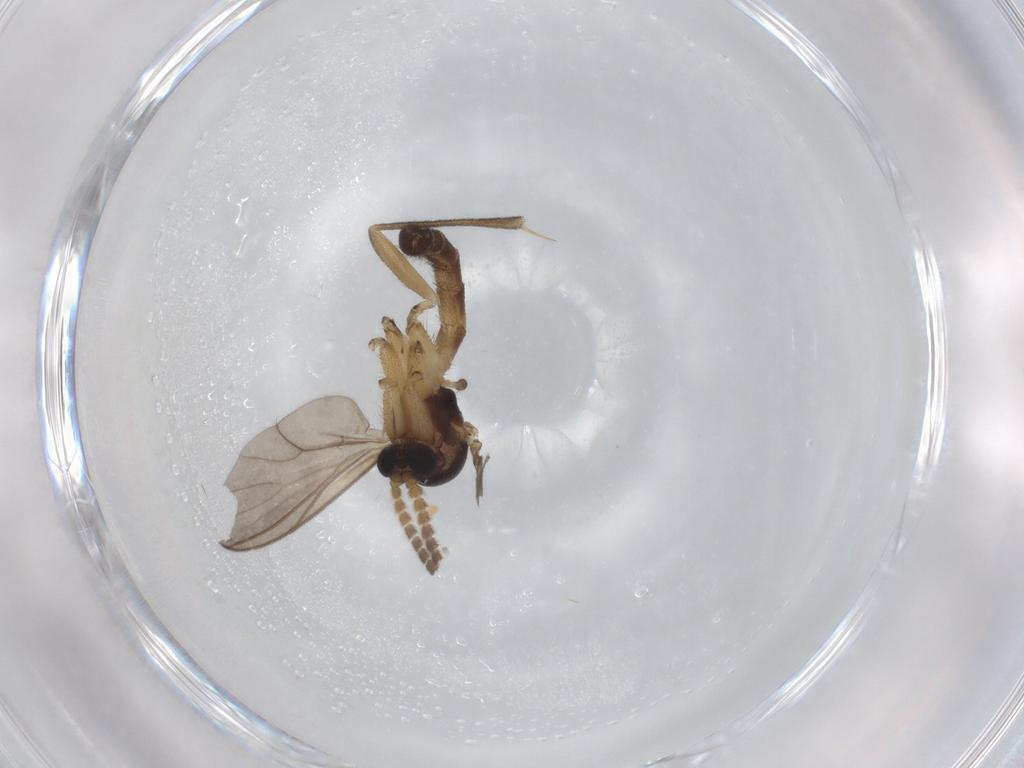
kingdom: Animalia
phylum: Arthropoda
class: Insecta
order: Diptera
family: Mycetophilidae
